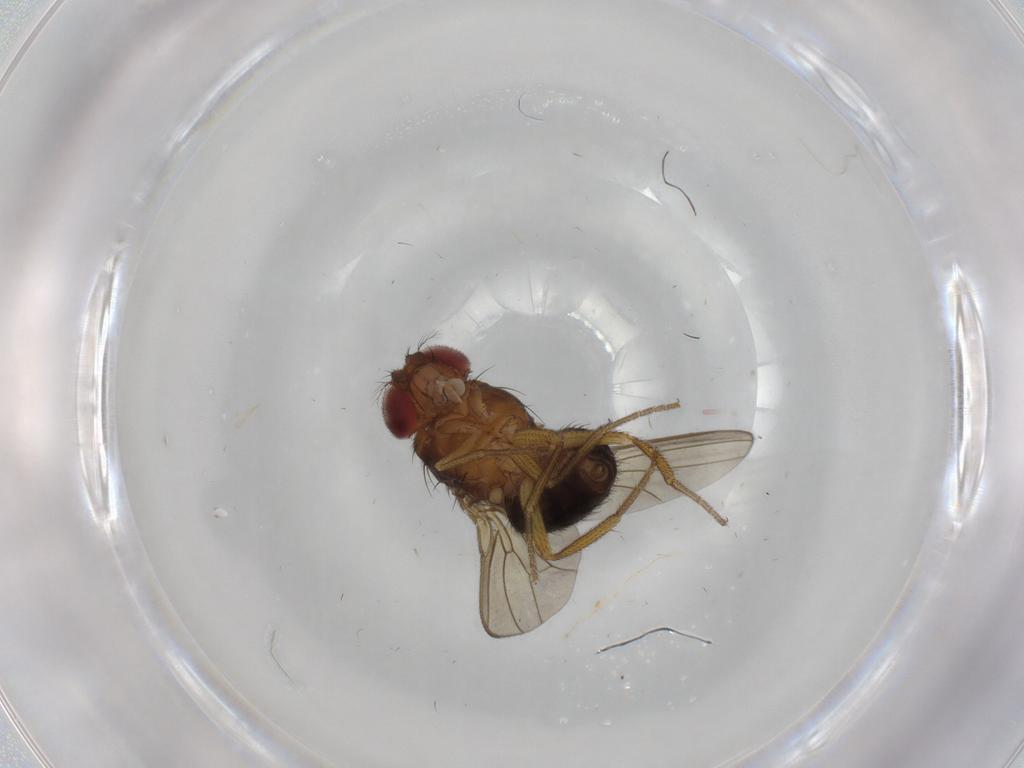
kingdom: Animalia
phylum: Arthropoda
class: Insecta
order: Diptera
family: Drosophilidae
